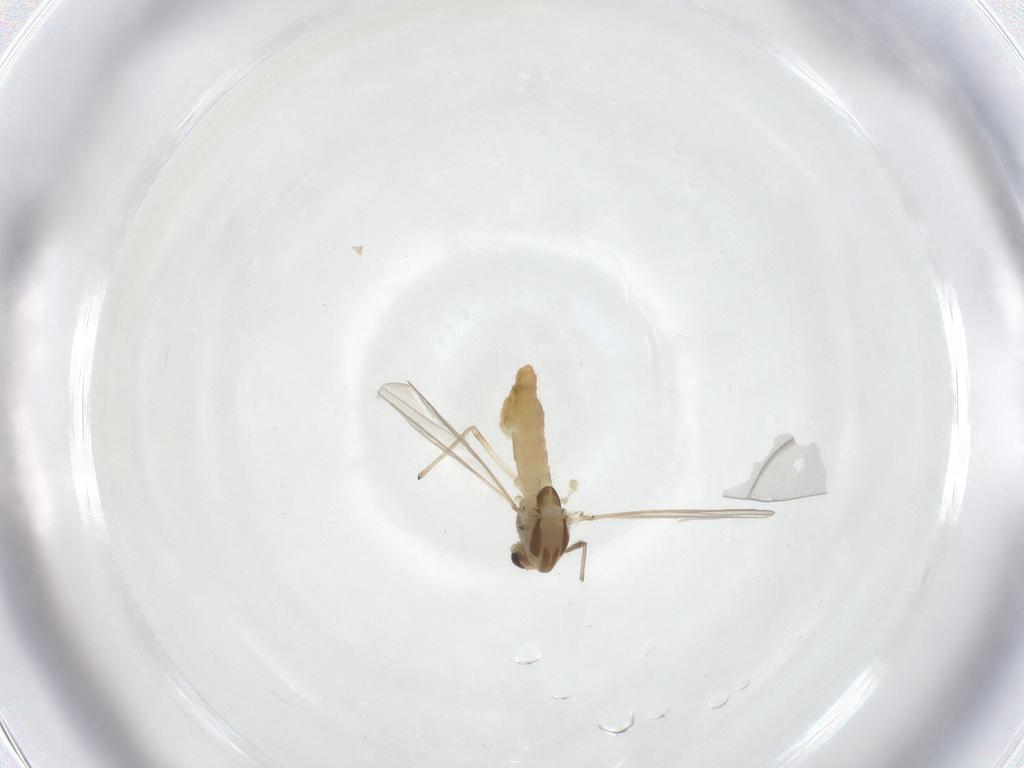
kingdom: Animalia
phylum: Arthropoda
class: Insecta
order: Diptera
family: Chironomidae
